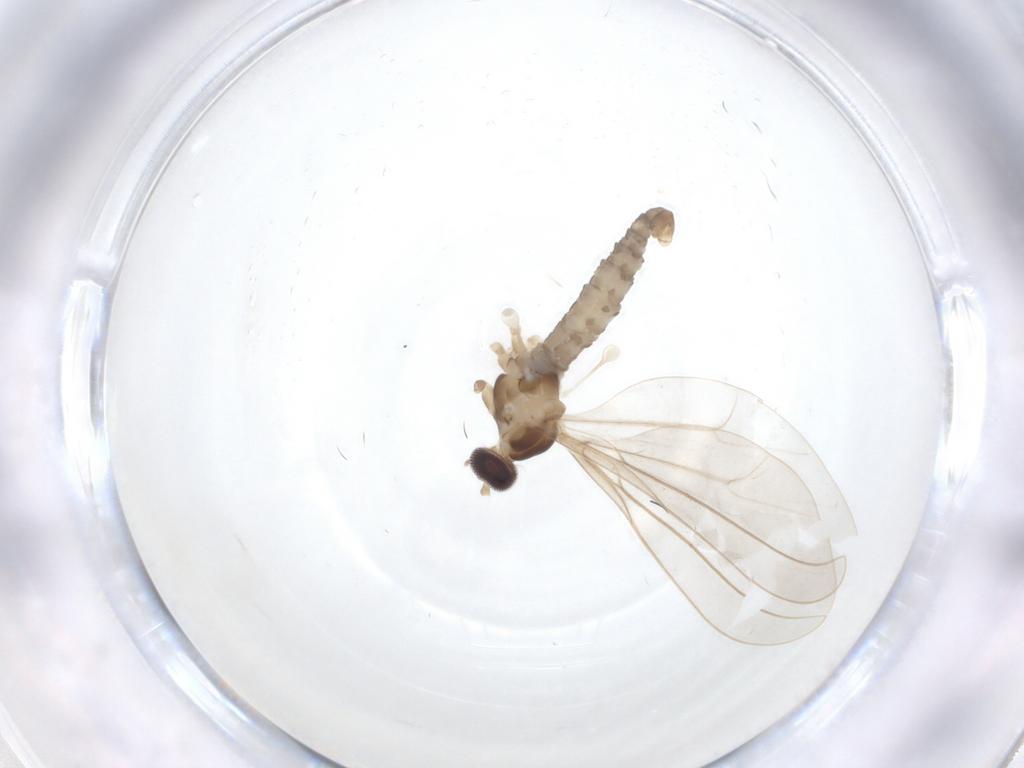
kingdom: Animalia
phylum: Arthropoda
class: Insecta
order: Diptera
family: Cecidomyiidae
